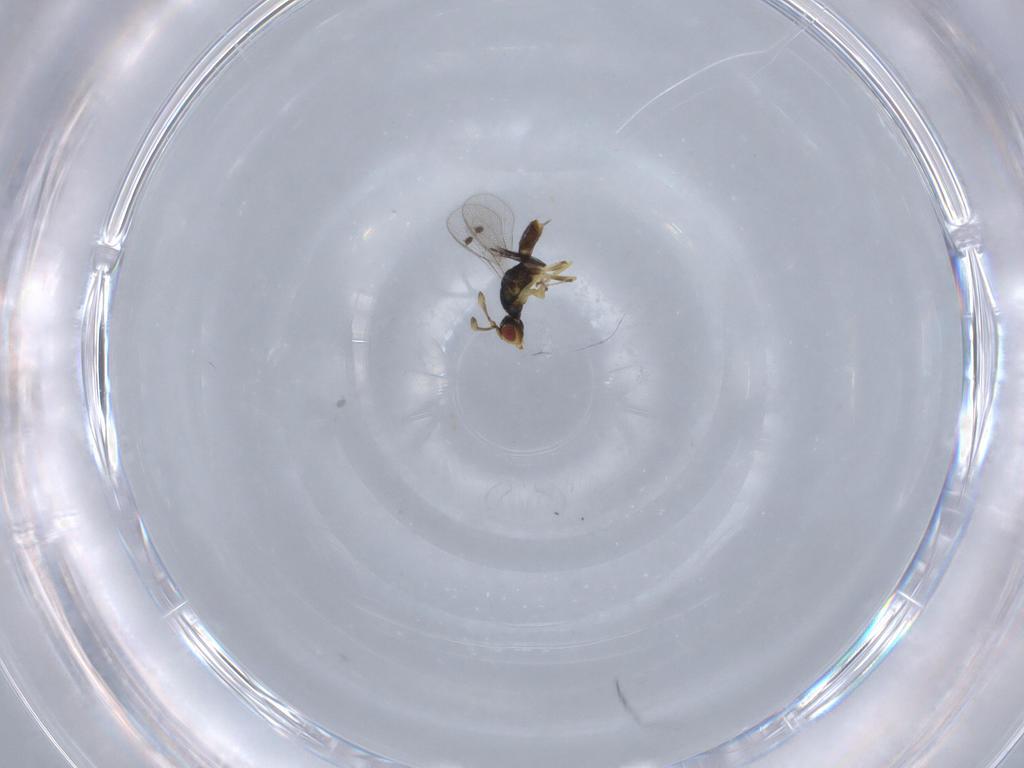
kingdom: Animalia
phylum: Arthropoda
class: Insecta
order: Hymenoptera
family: Megastigmidae
